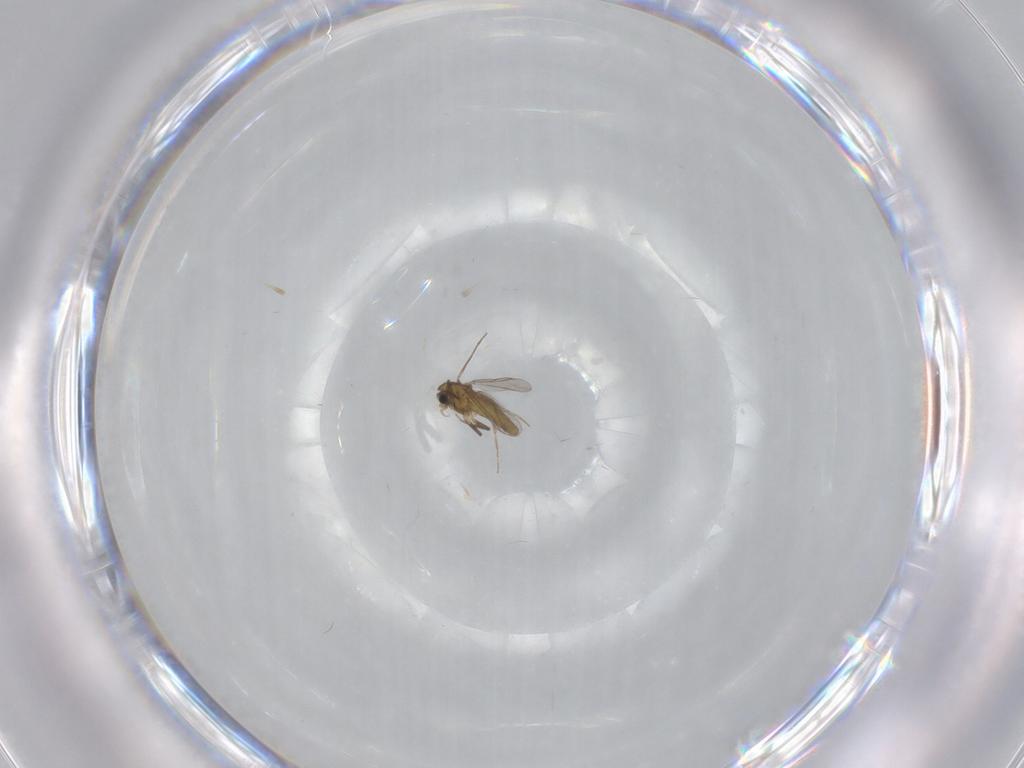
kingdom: Animalia
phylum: Arthropoda
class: Insecta
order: Diptera
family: Chironomidae
